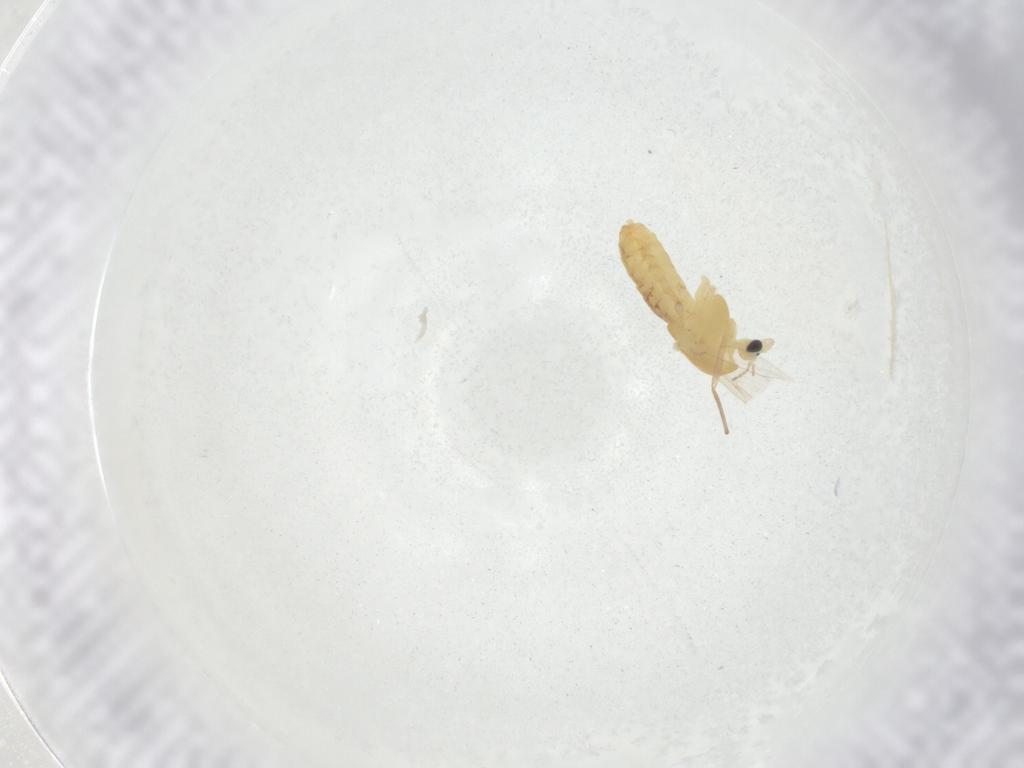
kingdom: Animalia
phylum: Arthropoda
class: Insecta
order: Diptera
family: Chironomidae
